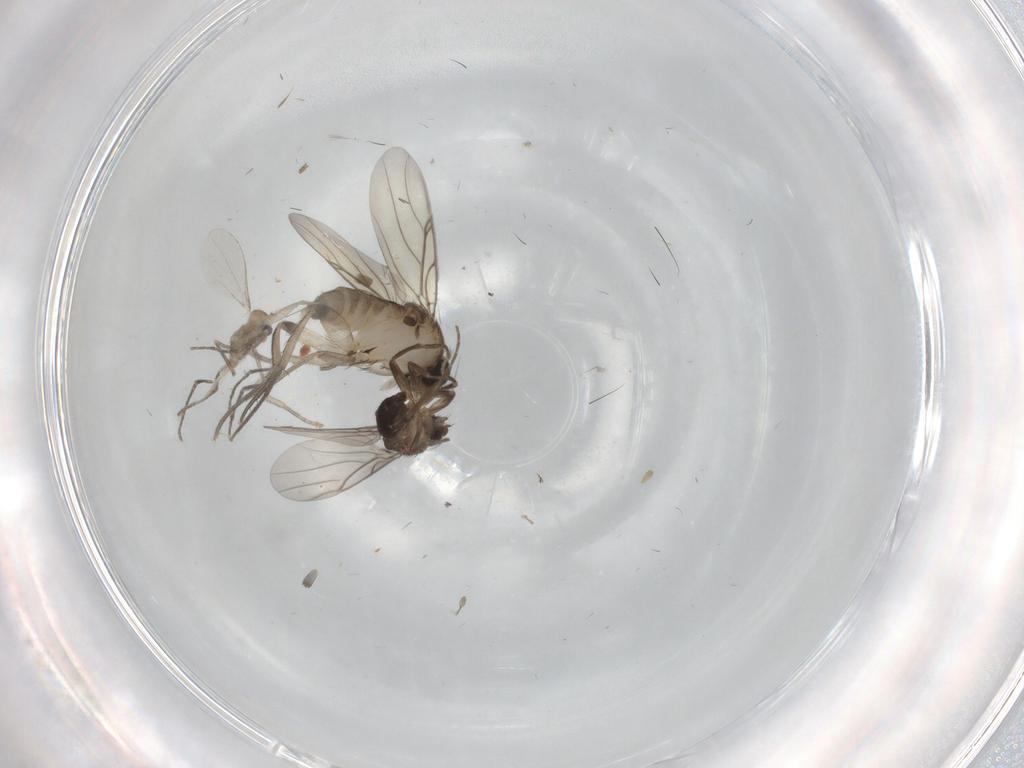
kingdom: Animalia
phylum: Arthropoda
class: Insecta
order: Diptera
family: Phoridae
